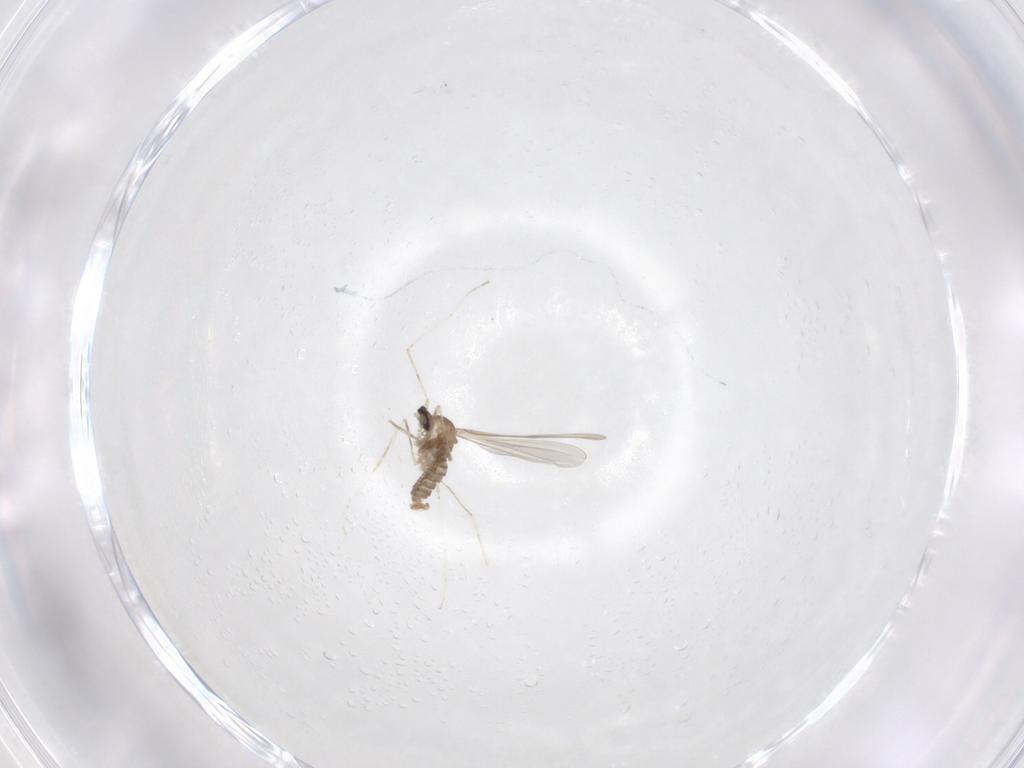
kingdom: Animalia
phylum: Arthropoda
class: Insecta
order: Diptera
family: Cecidomyiidae
